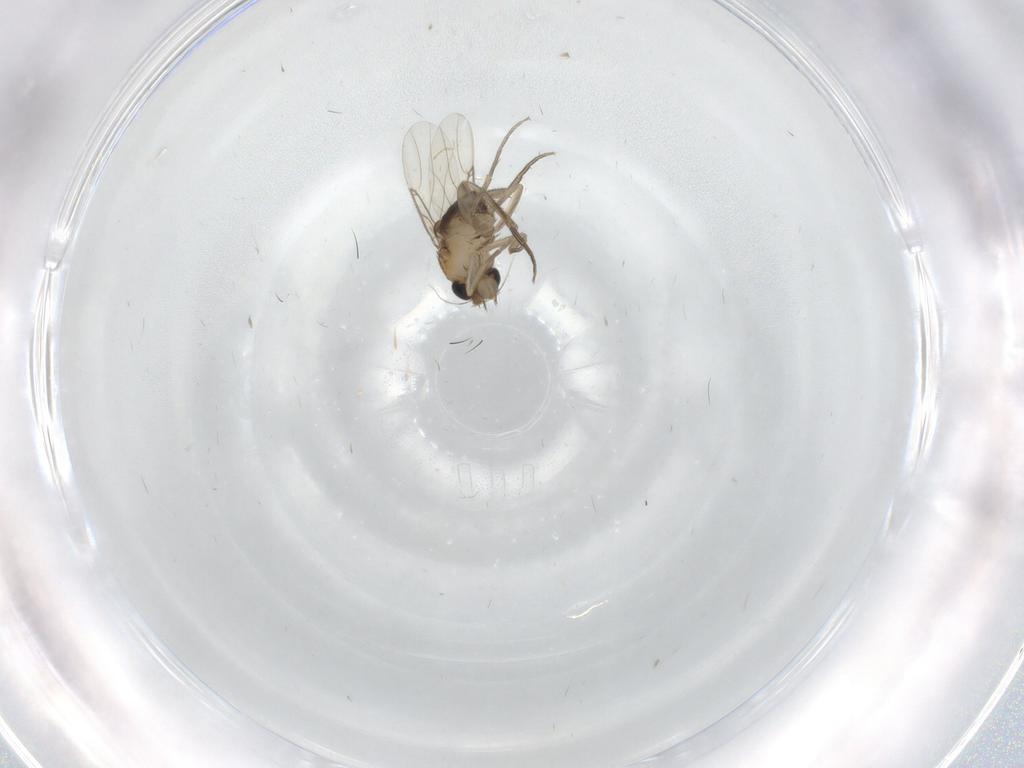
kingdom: Animalia
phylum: Arthropoda
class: Insecta
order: Diptera
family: Phoridae
